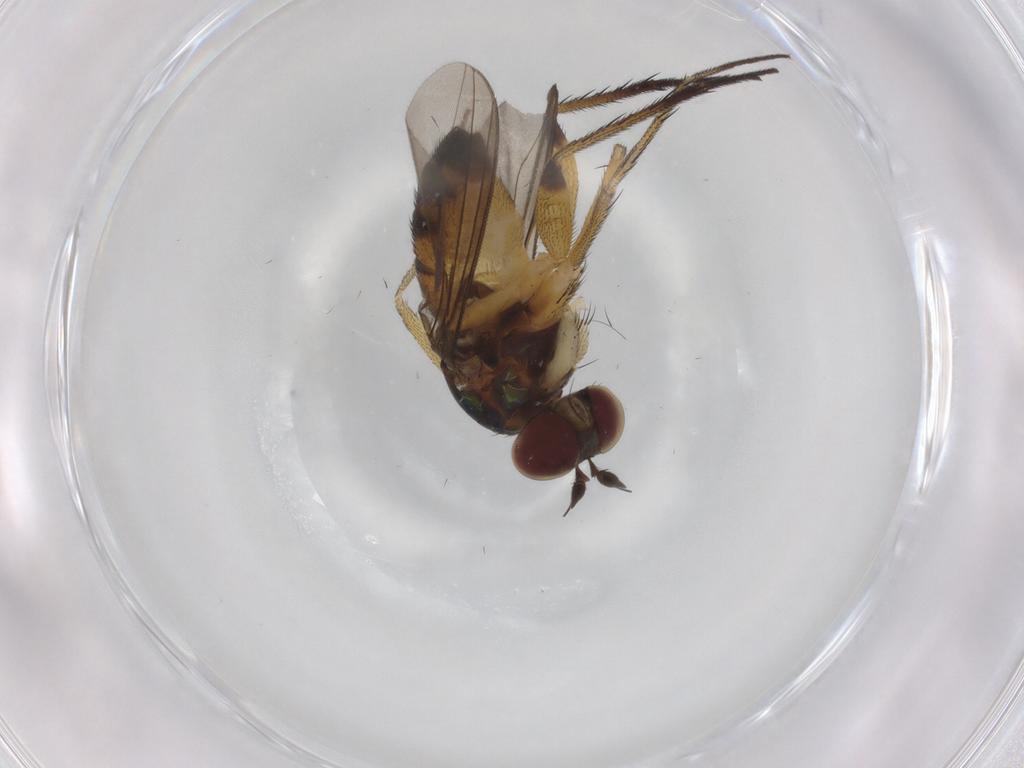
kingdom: Animalia
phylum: Arthropoda
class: Insecta
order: Diptera
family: Dolichopodidae
